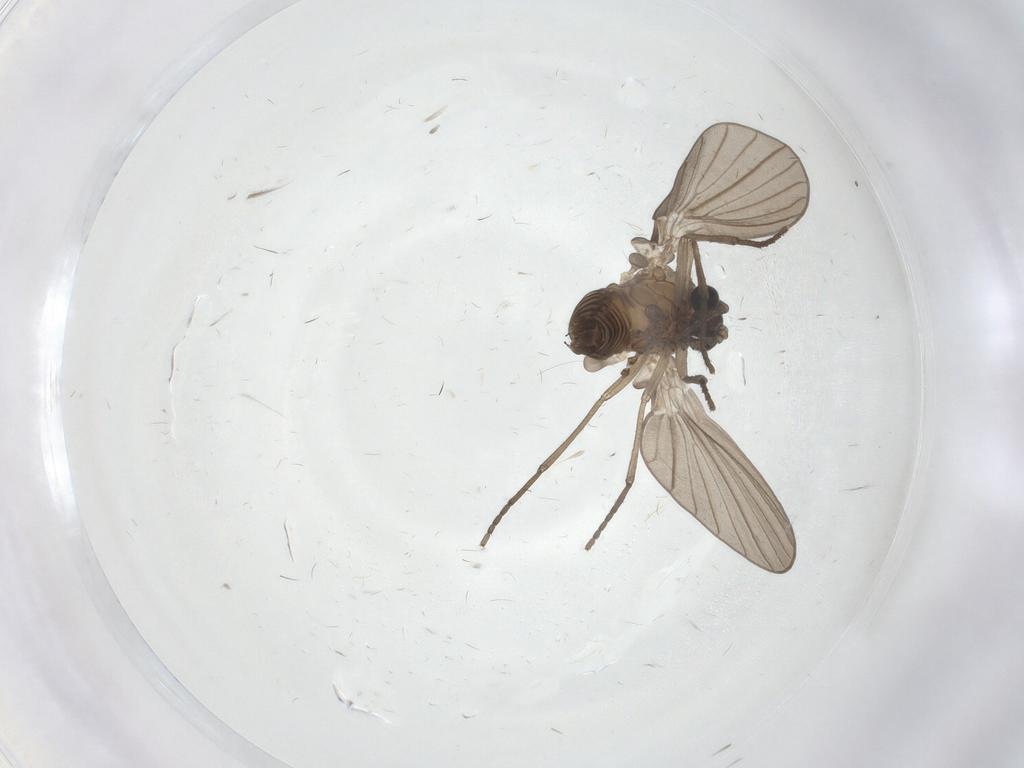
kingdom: Animalia
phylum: Arthropoda
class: Insecta
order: Diptera
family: Psychodidae
